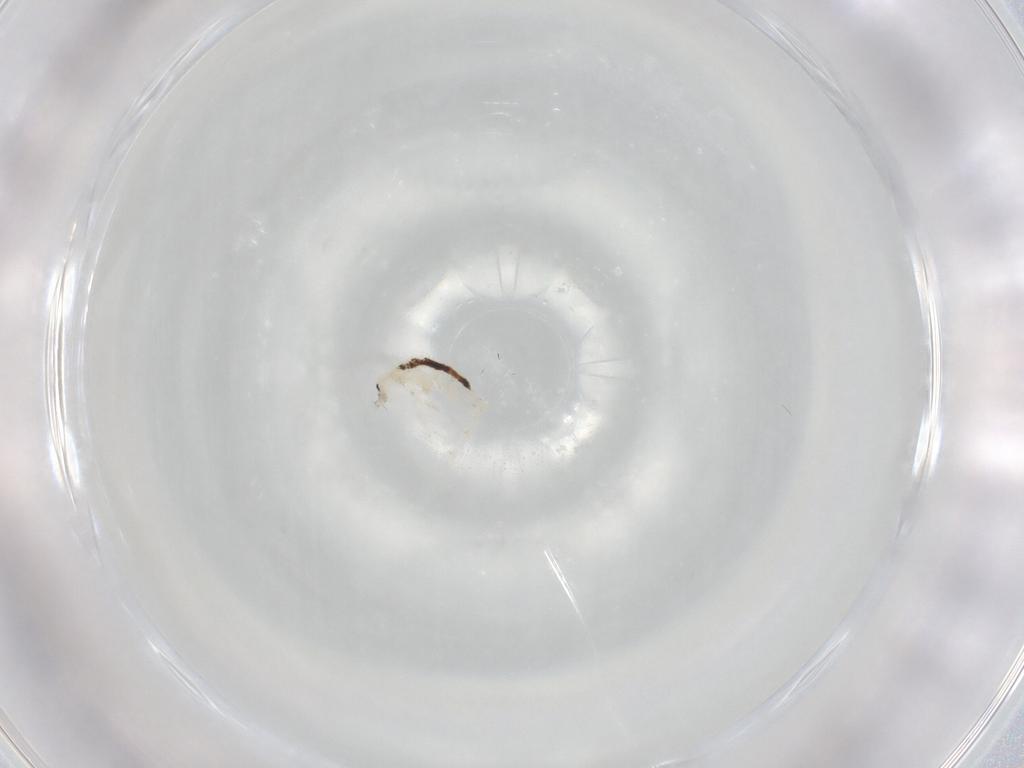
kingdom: Animalia
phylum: Arthropoda
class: Collembola
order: Entomobryomorpha
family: Entomobryidae
